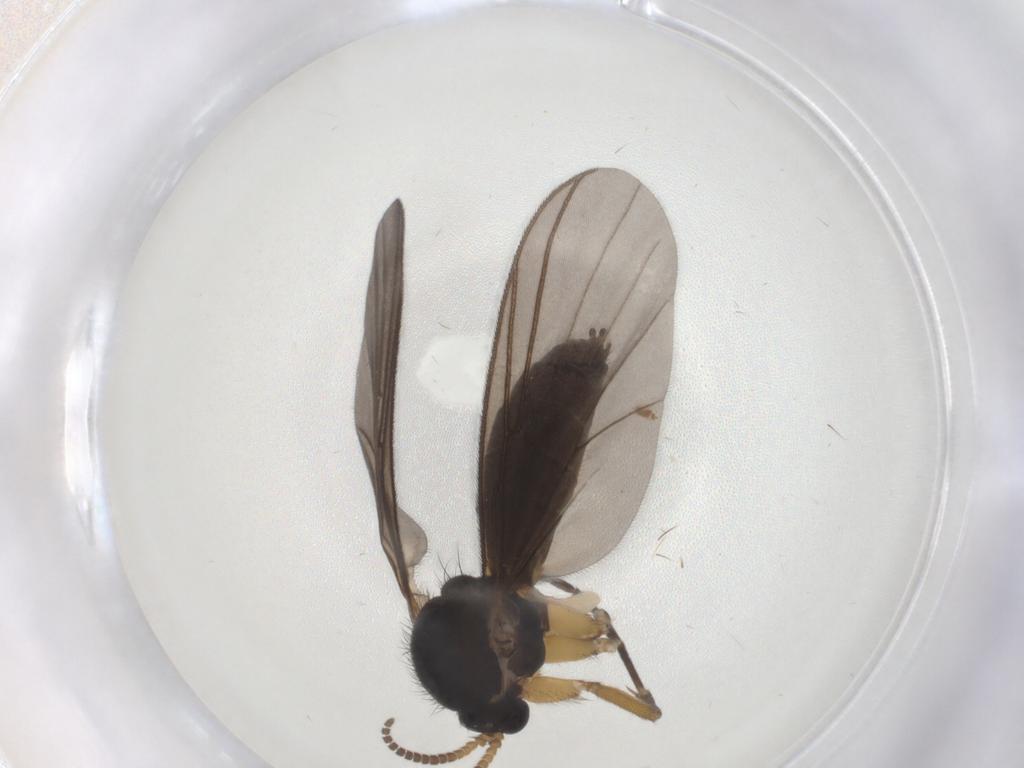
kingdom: Animalia
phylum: Arthropoda
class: Insecta
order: Diptera
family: Mycetophilidae
